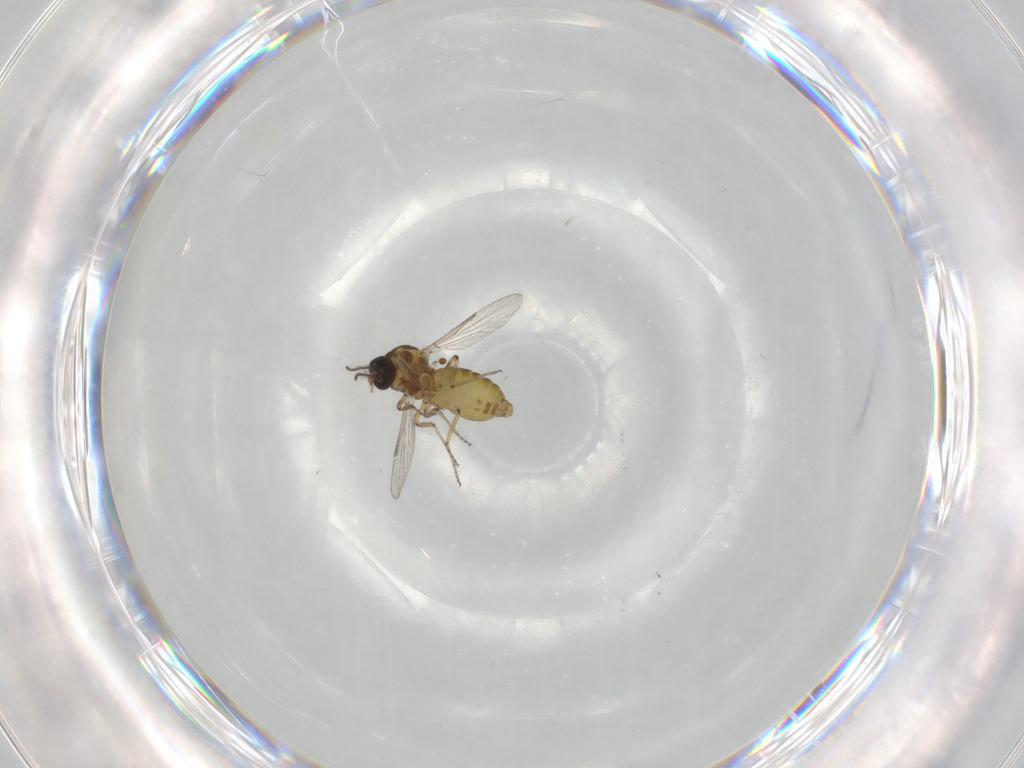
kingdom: Animalia
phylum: Arthropoda
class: Insecta
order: Diptera
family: Ceratopogonidae
